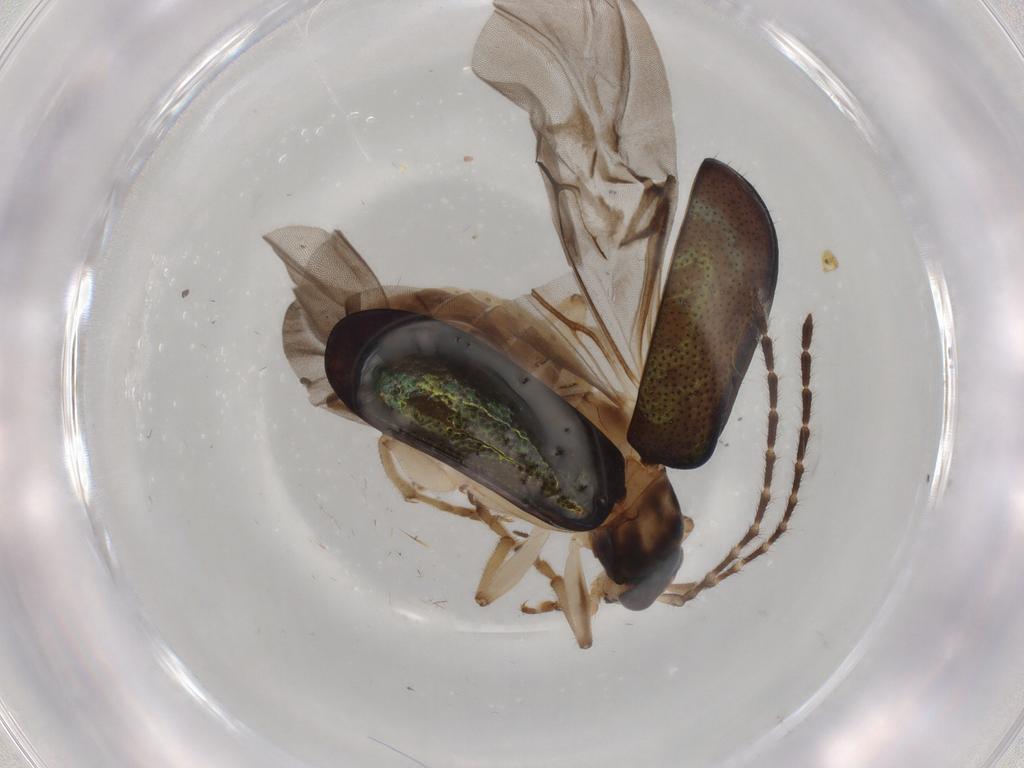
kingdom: Animalia
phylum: Arthropoda
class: Insecta
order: Coleoptera
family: Chrysomelidae
